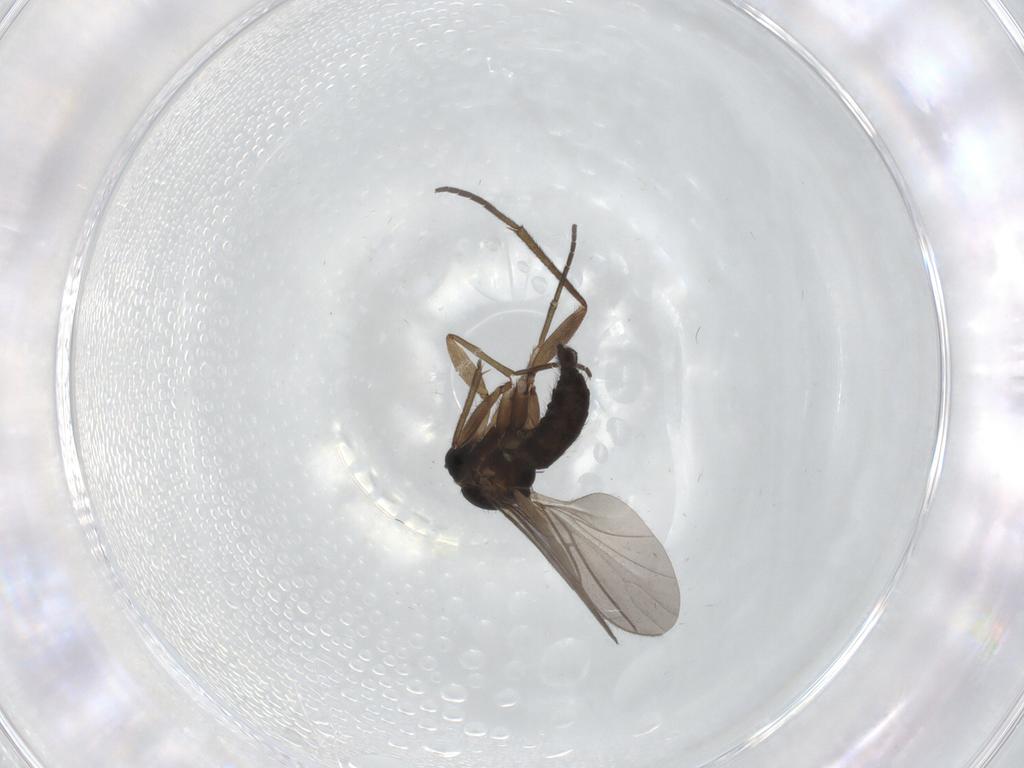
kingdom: Animalia
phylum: Arthropoda
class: Insecta
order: Diptera
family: Sciaridae
